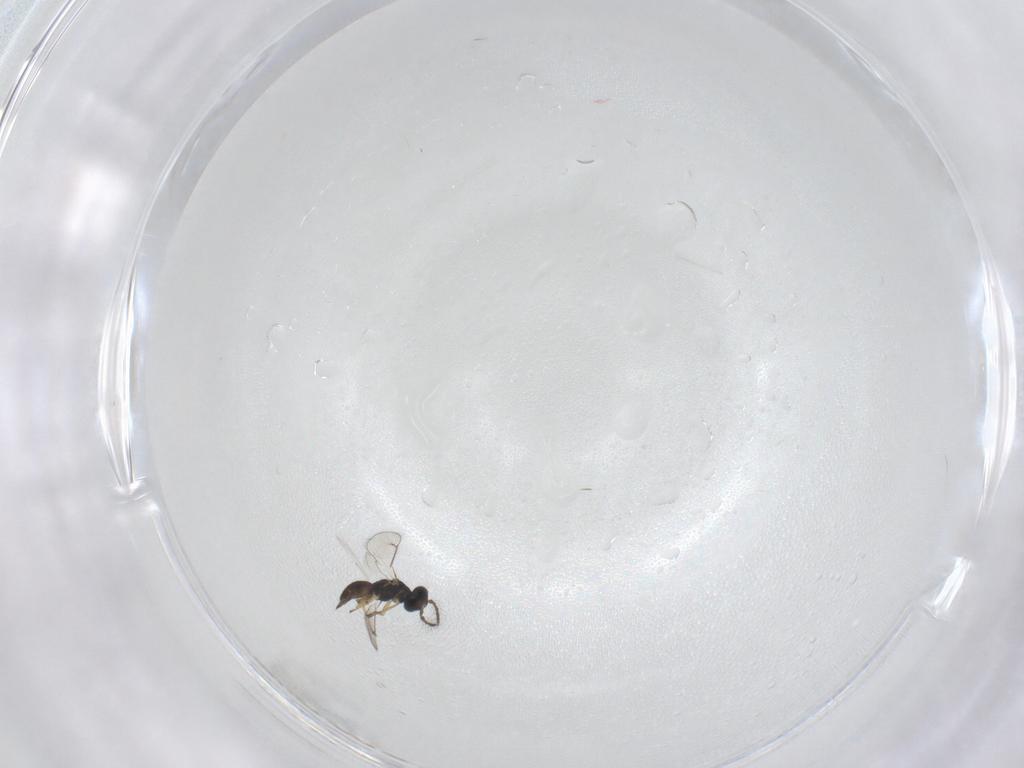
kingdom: Animalia
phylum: Arthropoda
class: Insecta
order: Hymenoptera
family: Eulophidae
